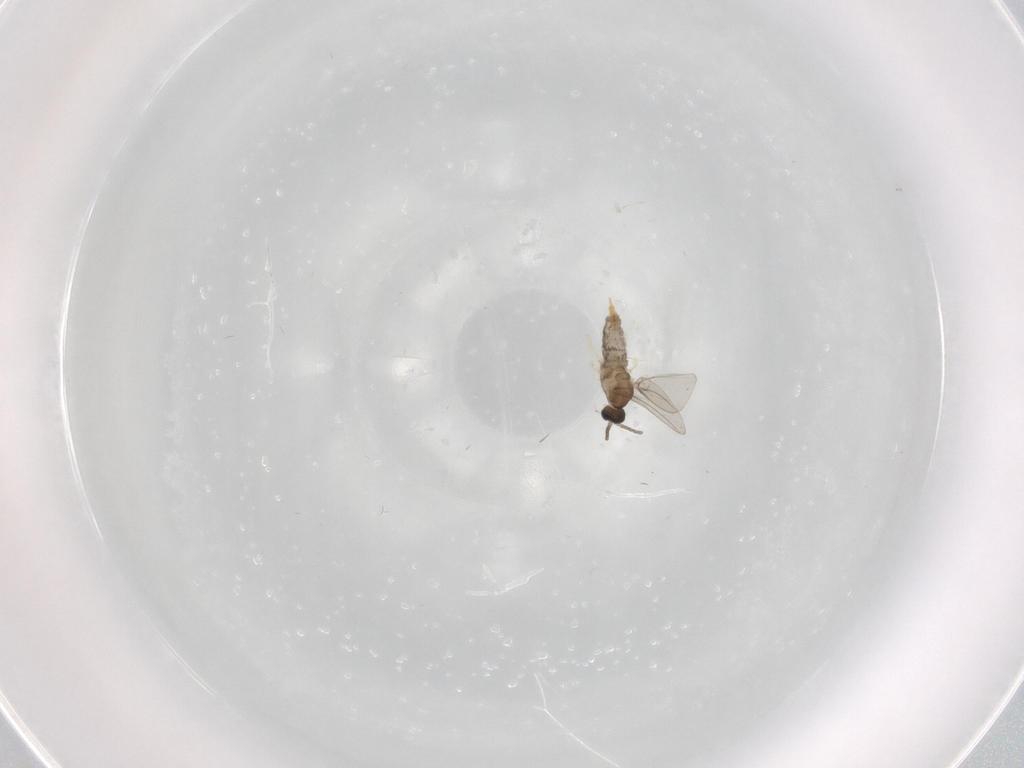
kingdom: Animalia
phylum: Arthropoda
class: Insecta
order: Diptera
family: Cecidomyiidae
